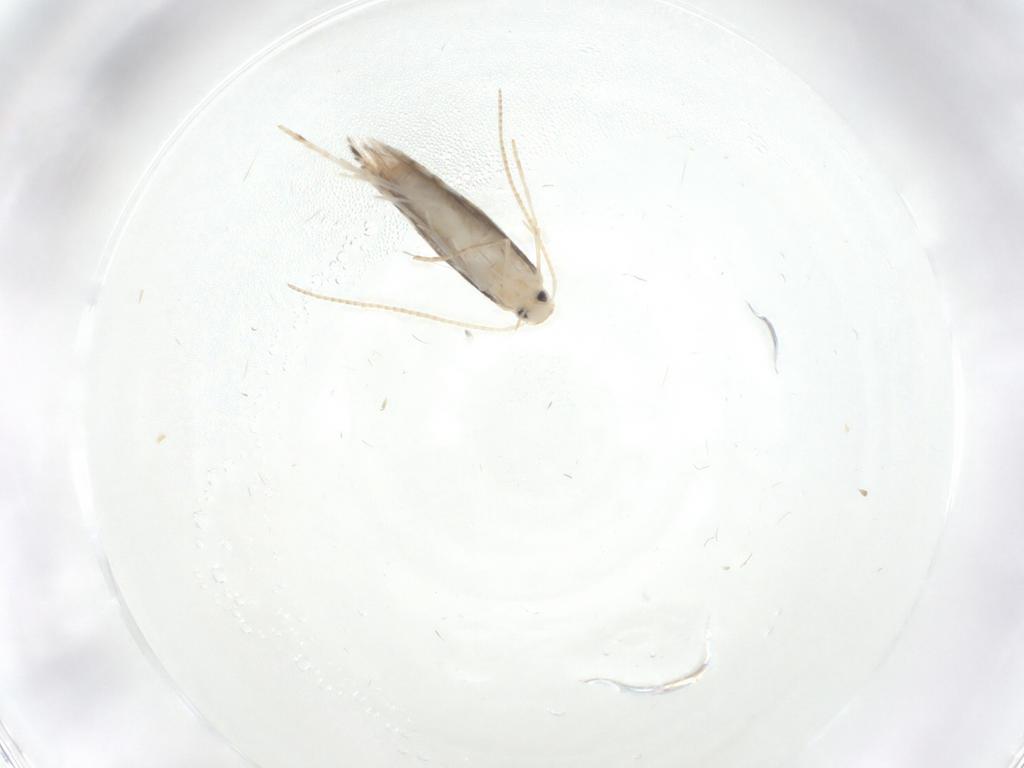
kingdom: Animalia
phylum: Arthropoda
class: Insecta
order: Lepidoptera
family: Gracillariidae
